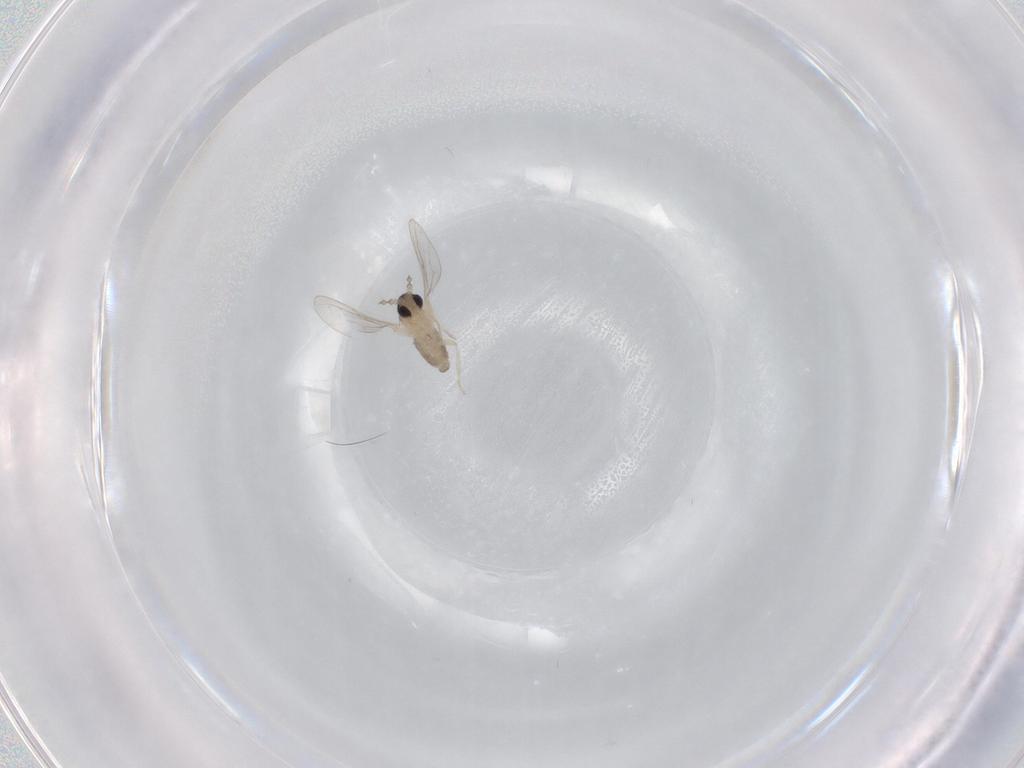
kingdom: Animalia
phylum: Arthropoda
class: Insecta
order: Diptera
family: Cecidomyiidae
